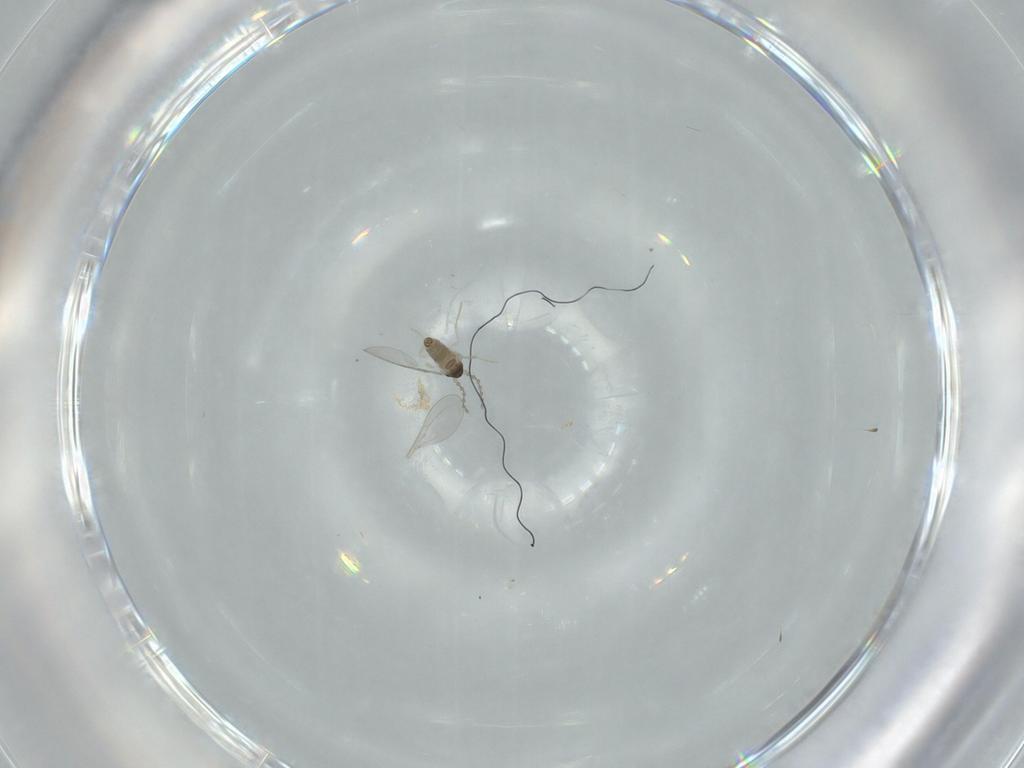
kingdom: Animalia
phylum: Arthropoda
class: Insecta
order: Diptera
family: Cecidomyiidae
